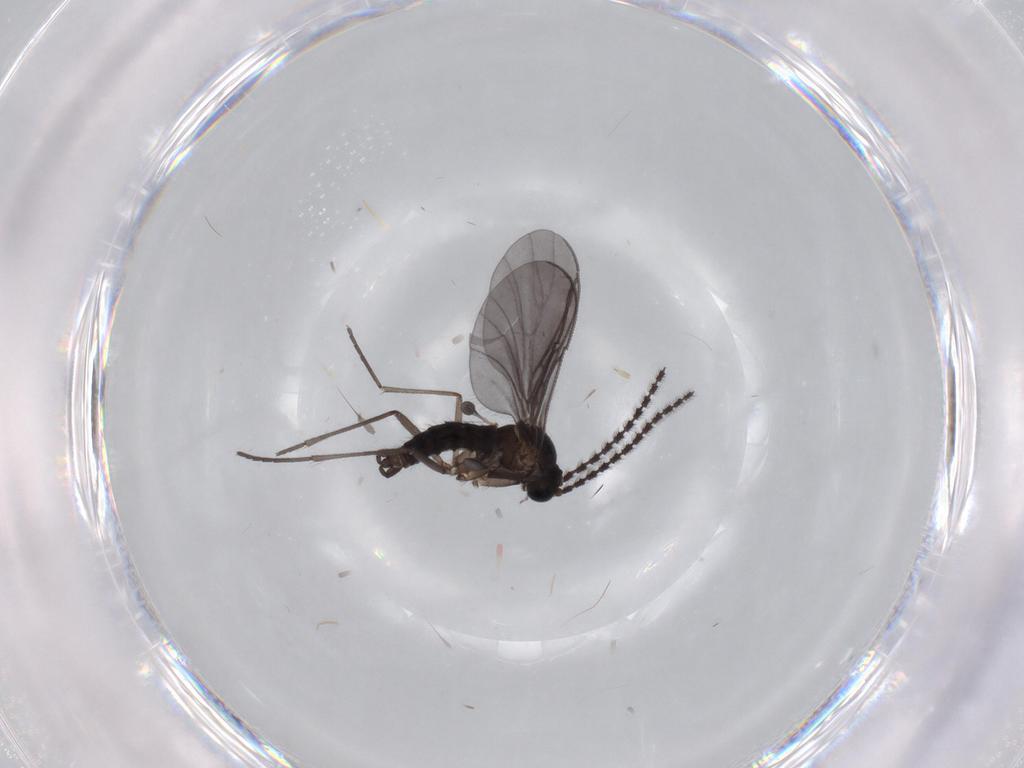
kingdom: Animalia
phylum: Arthropoda
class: Insecta
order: Diptera
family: Sciaridae
